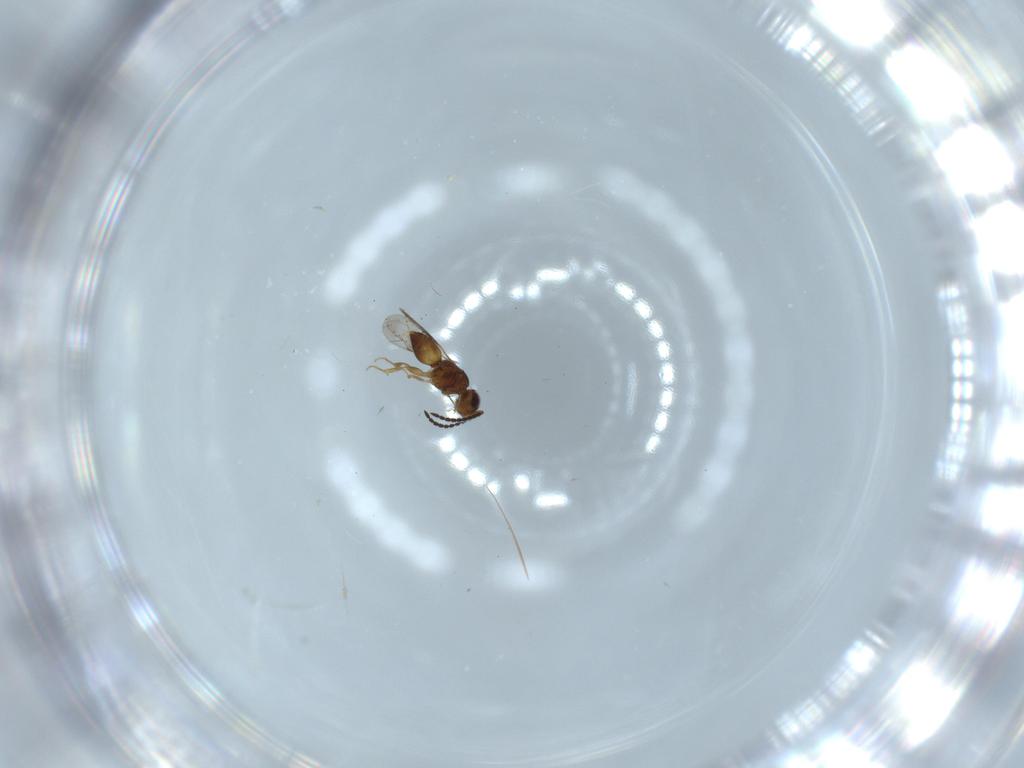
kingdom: Animalia
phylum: Arthropoda
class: Insecta
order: Hymenoptera
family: Ceraphronidae
